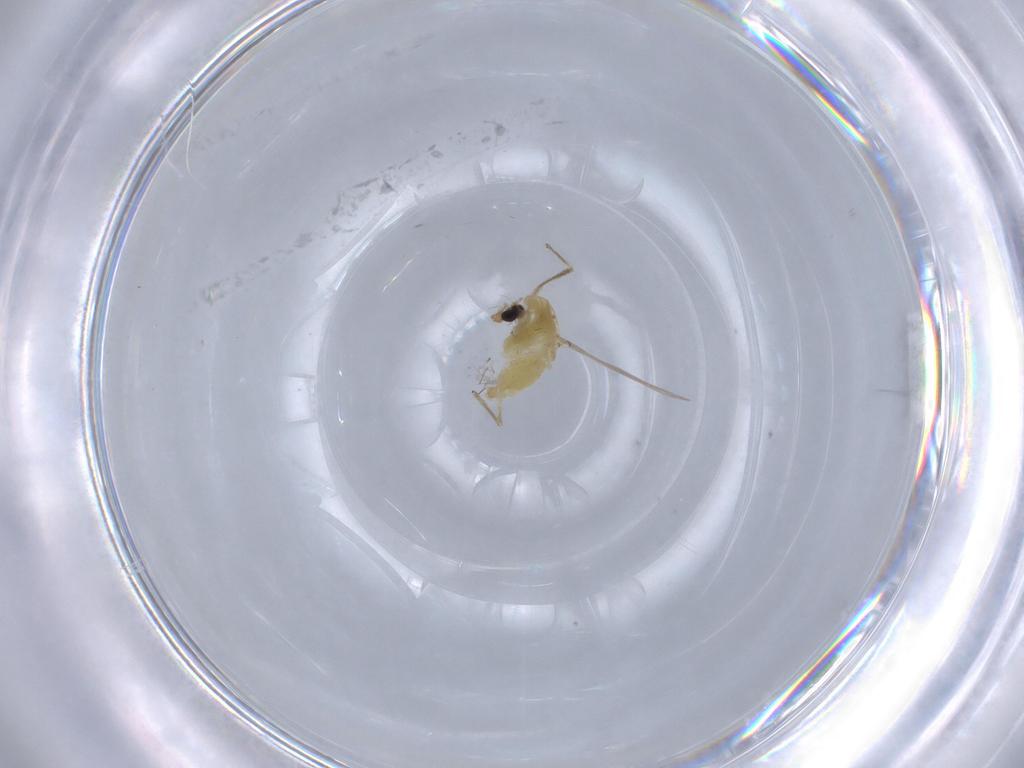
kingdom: Animalia
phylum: Arthropoda
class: Insecta
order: Diptera
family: Chironomidae
